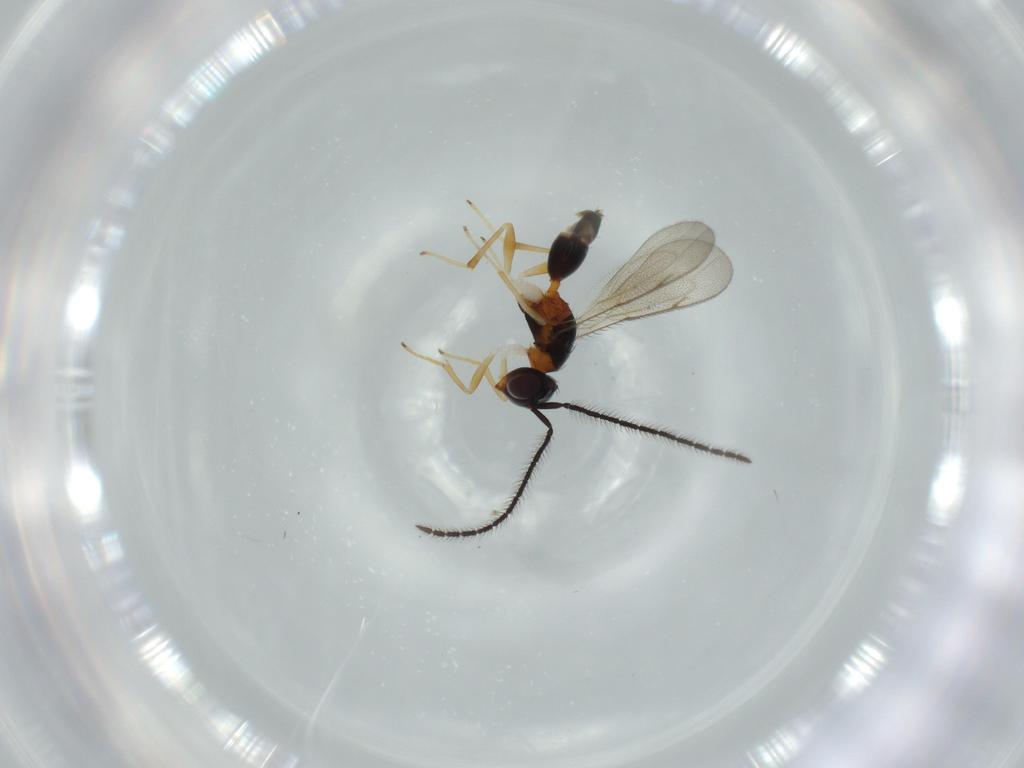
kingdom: Animalia
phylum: Arthropoda
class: Insecta
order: Hymenoptera
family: Diparidae
